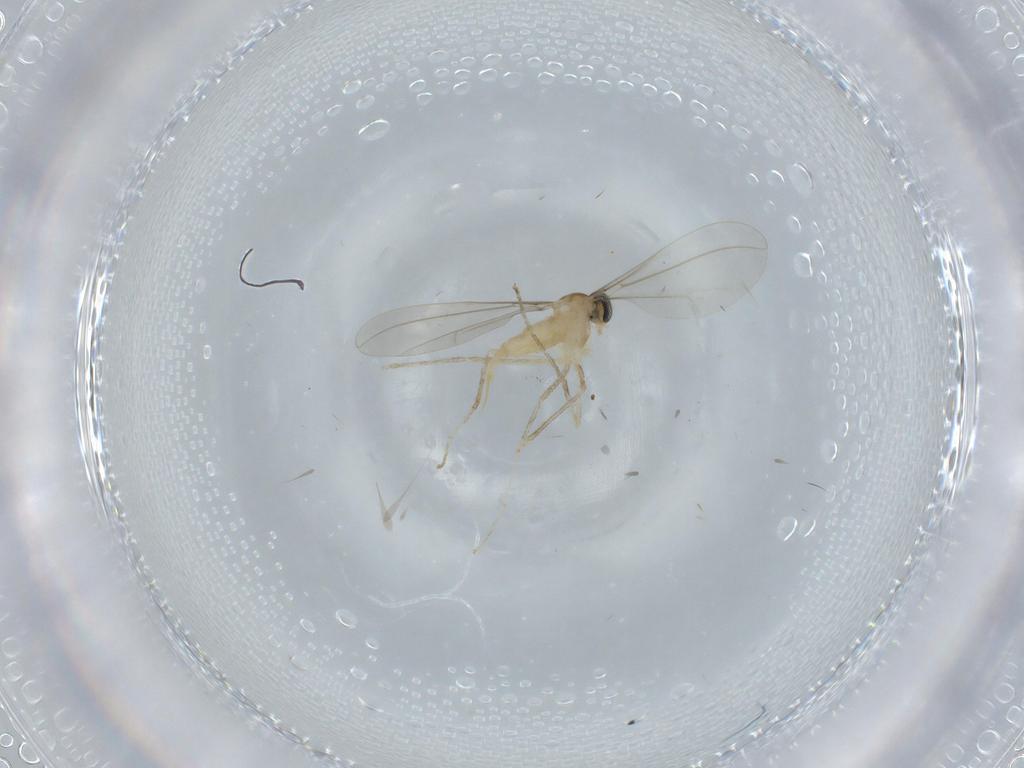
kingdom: Animalia
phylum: Arthropoda
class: Insecta
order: Diptera
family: Cecidomyiidae
